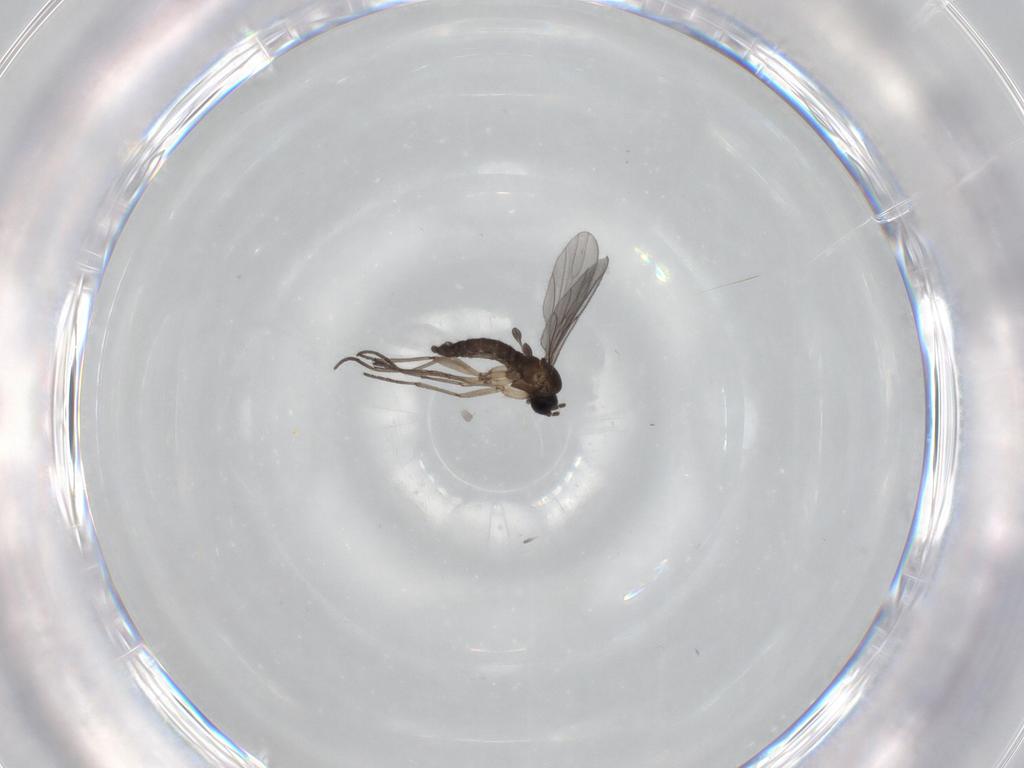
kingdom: Animalia
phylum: Arthropoda
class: Insecta
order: Diptera
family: Sciaridae
